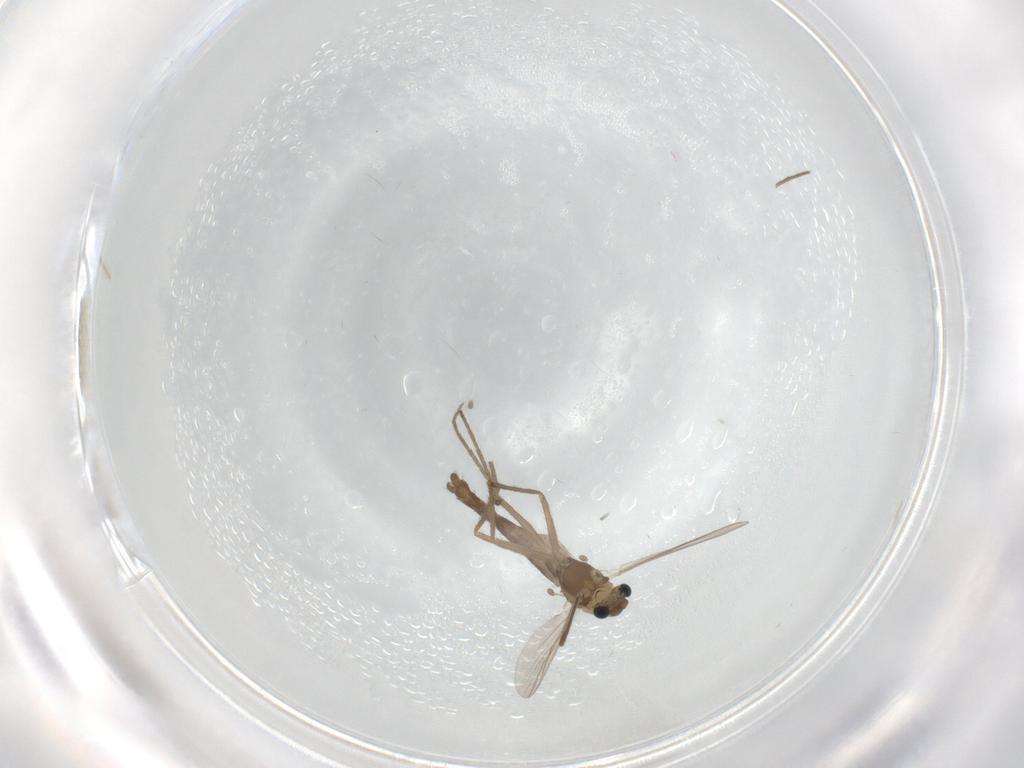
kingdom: Animalia
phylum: Arthropoda
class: Insecta
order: Diptera
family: Chironomidae
